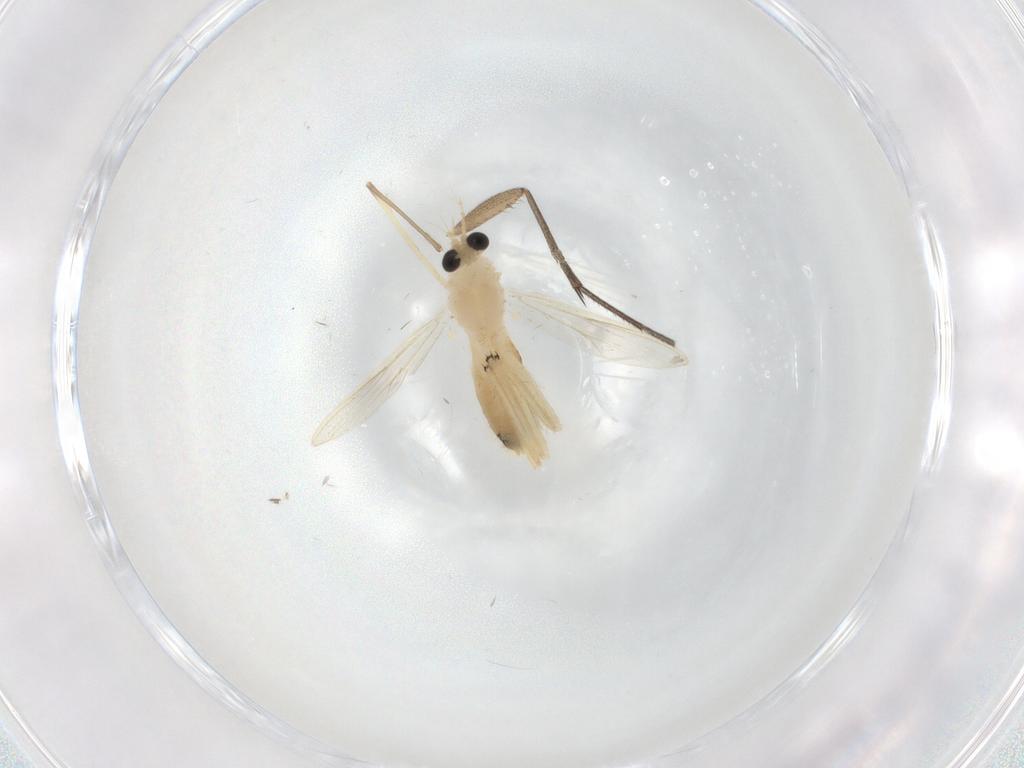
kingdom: Animalia
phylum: Arthropoda
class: Insecta
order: Diptera
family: Chironomidae
